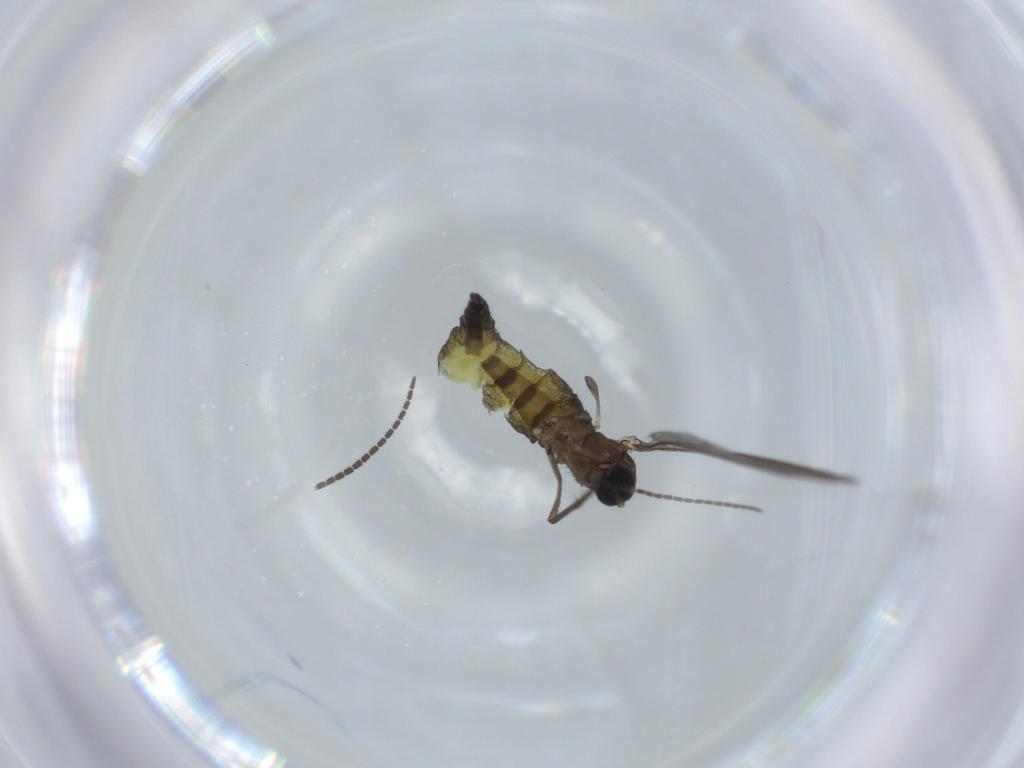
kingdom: Animalia
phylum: Arthropoda
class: Insecta
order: Diptera
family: Sciaridae
